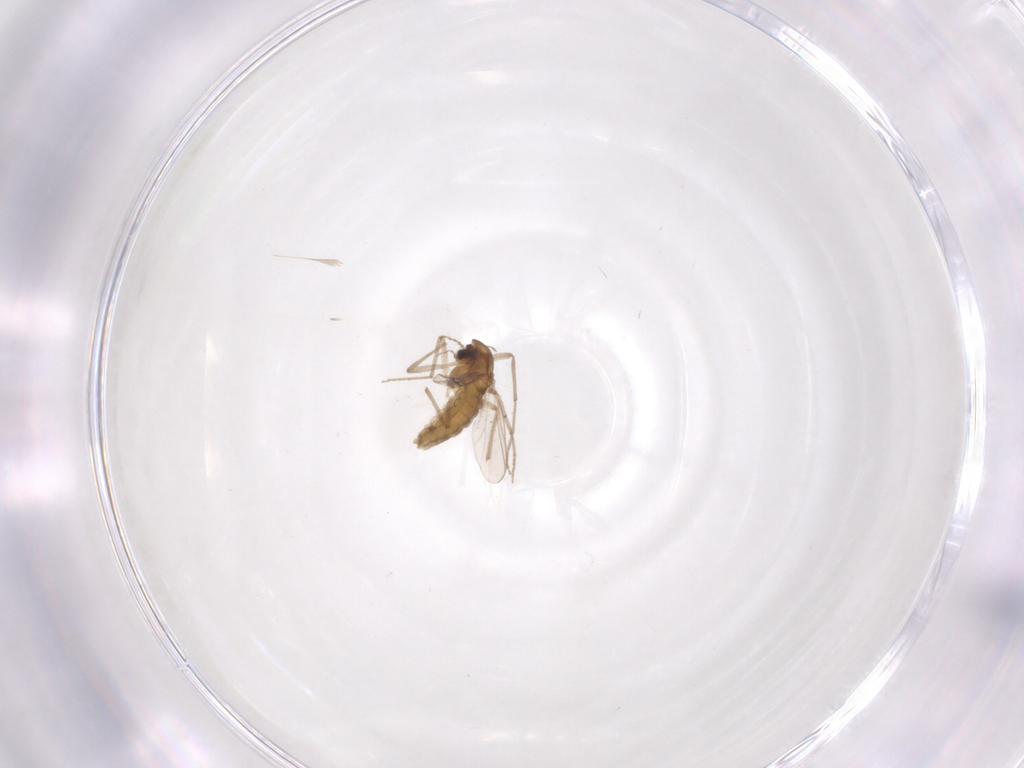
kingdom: Animalia
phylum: Arthropoda
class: Insecta
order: Diptera
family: Chironomidae
